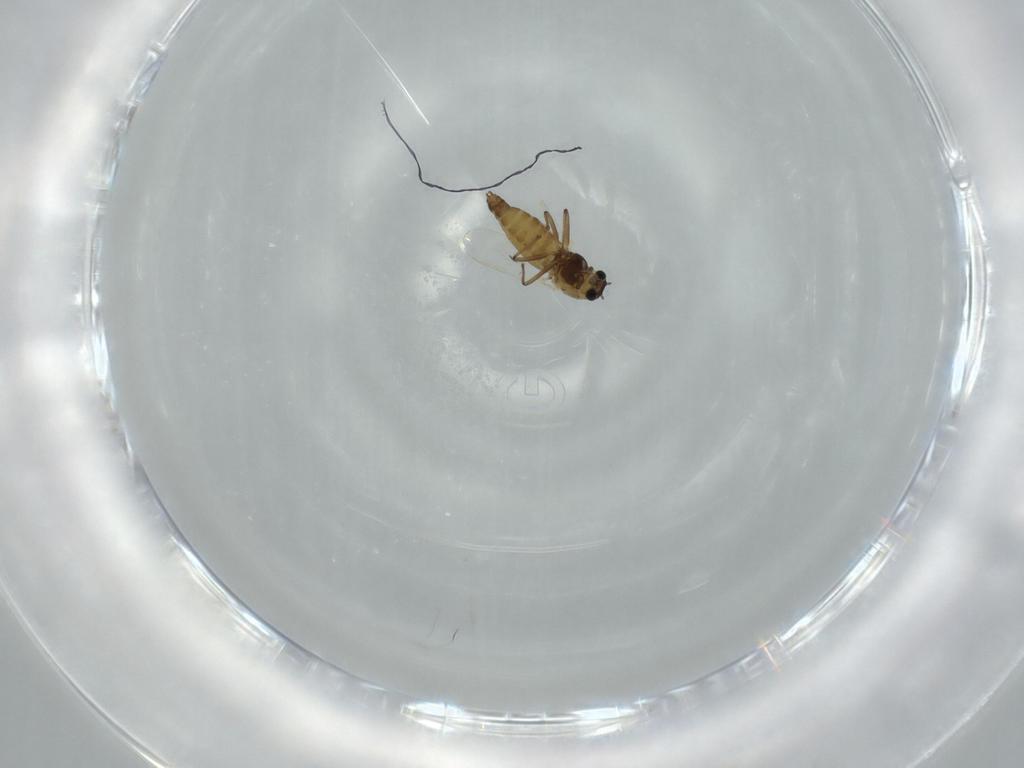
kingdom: Animalia
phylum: Arthropoda
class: Insecta
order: Diptera
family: Chironomidae
